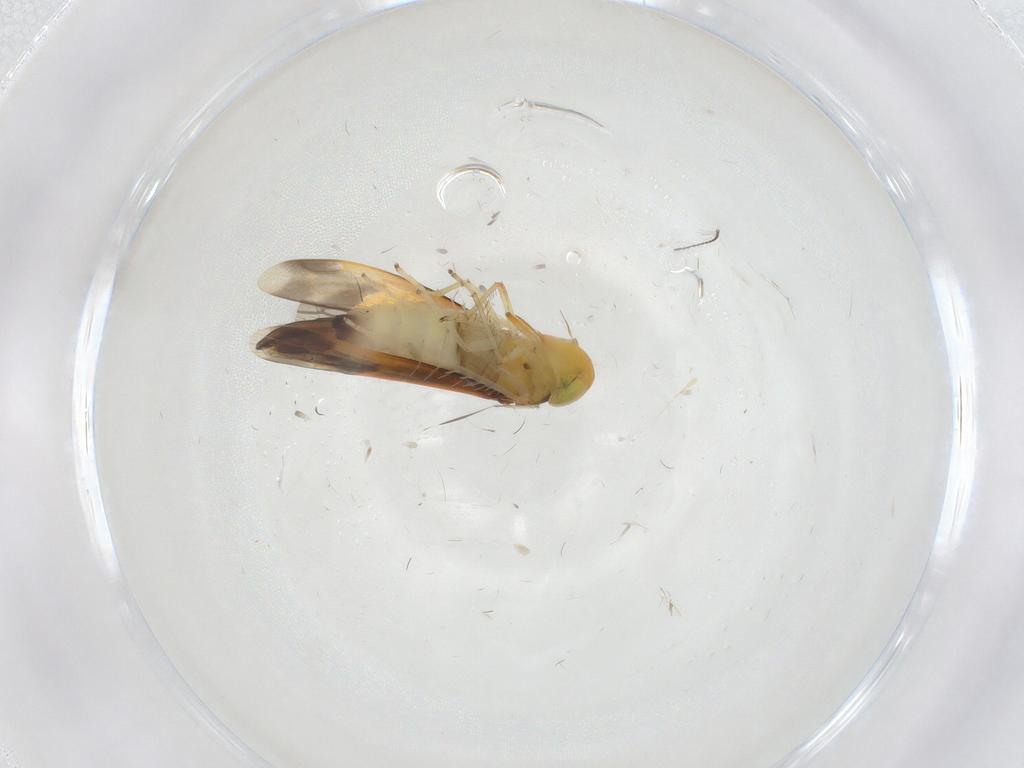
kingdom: Animalia
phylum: Arthropoda
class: Insecta
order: Hemiptera
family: Cicadellidae
